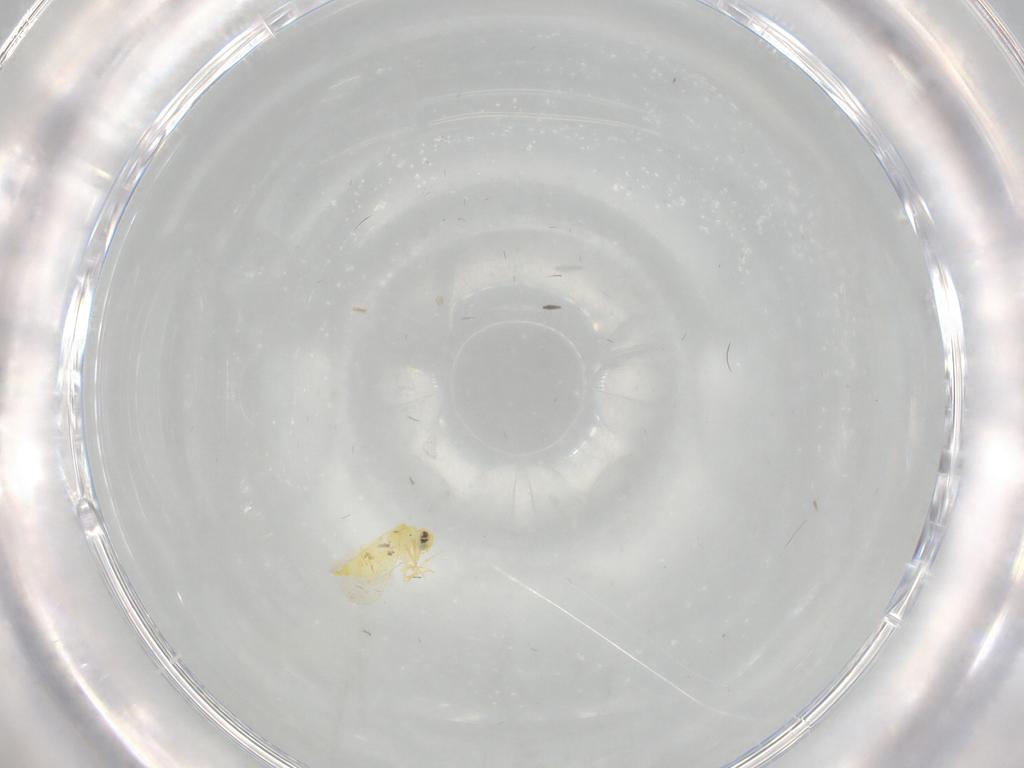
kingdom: Animalia
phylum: Arthropoda
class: Insecta
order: Hemiptera
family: Aleyrodidae
